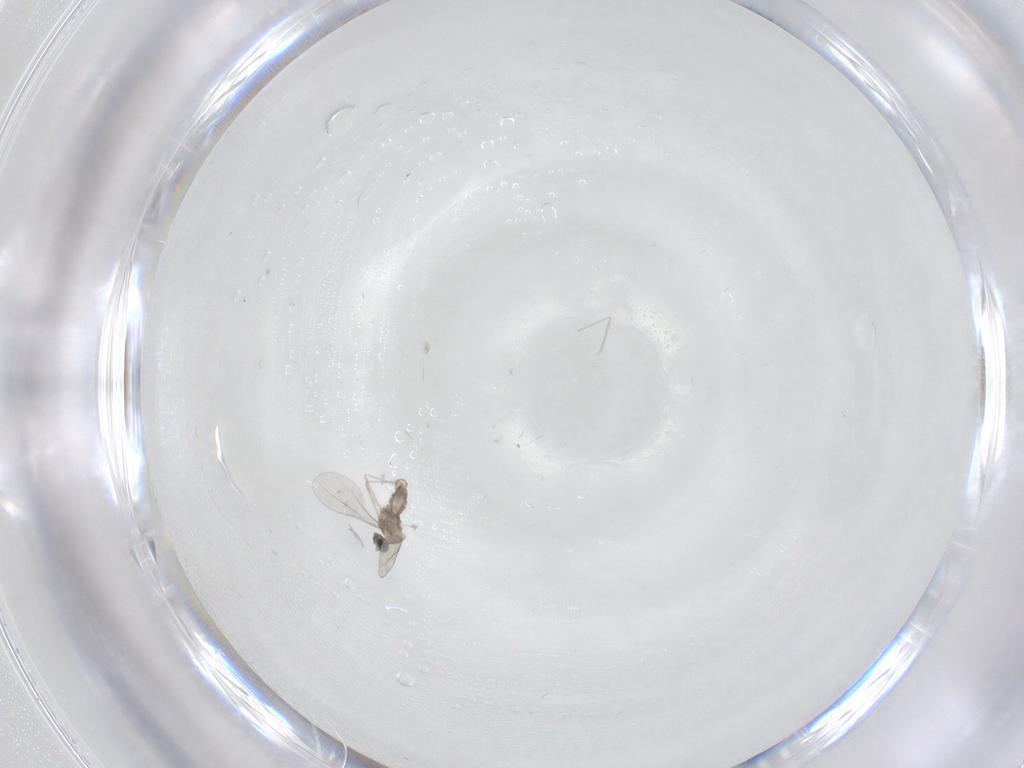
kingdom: Animalia
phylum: Arthropoda
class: Insecta
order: Diptera
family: Cecidomyiidae
